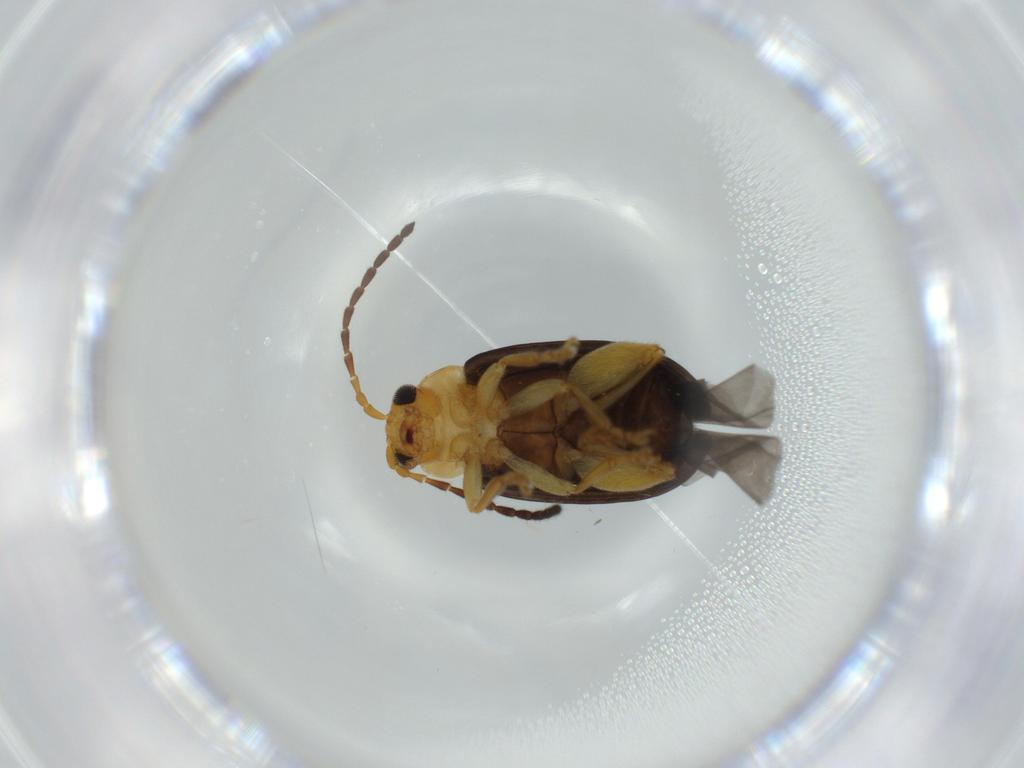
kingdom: Animalia
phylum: Arthropoda
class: Insecta
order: Coleoptera
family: Chrysomelidae
